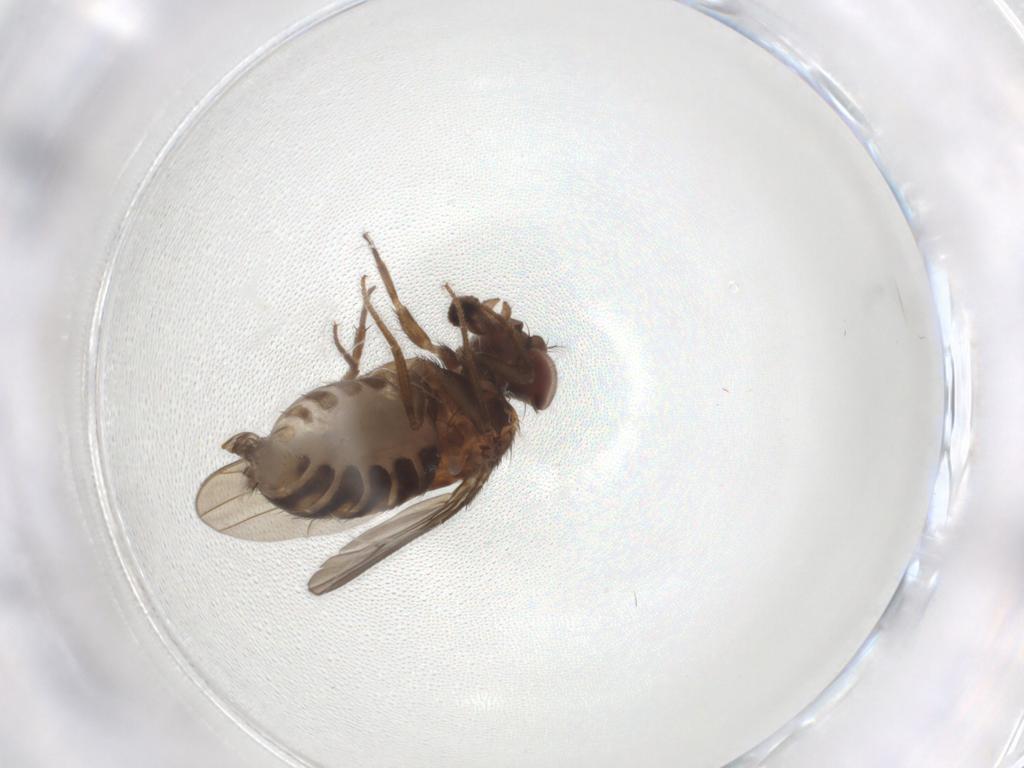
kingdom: Animalia
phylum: Arthropoda
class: Insecta
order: Diptera
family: Drosophilidae
